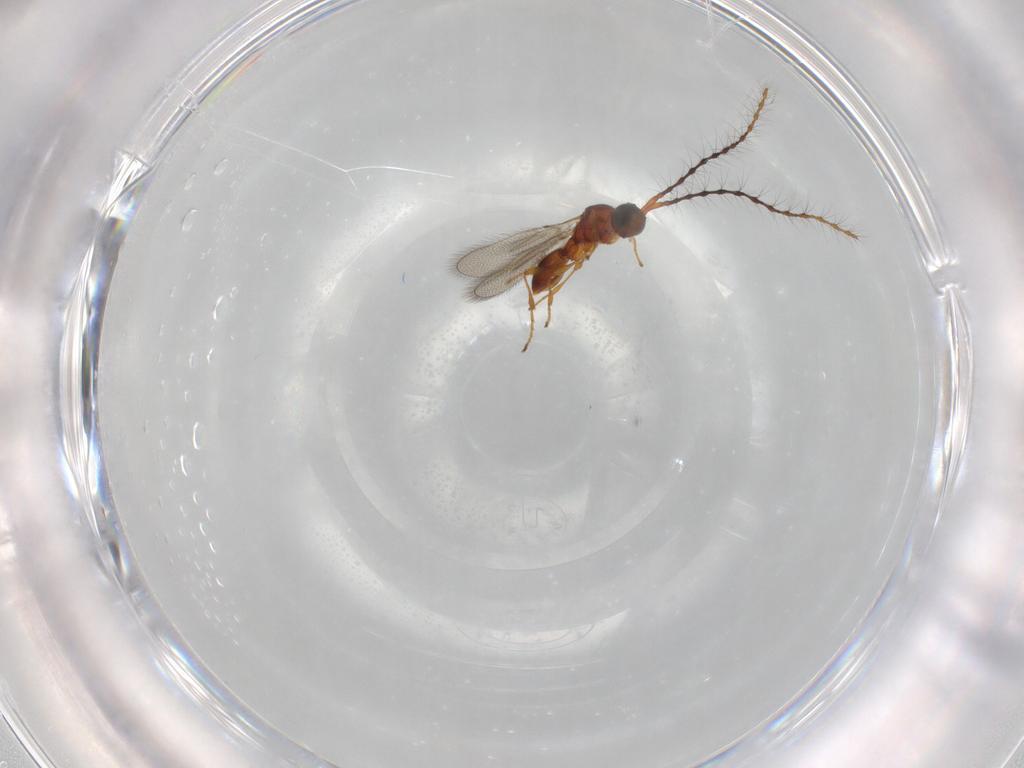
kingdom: Animalia
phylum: Arthropoda
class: Insecta
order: Hymenoptera
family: Diapriidae
